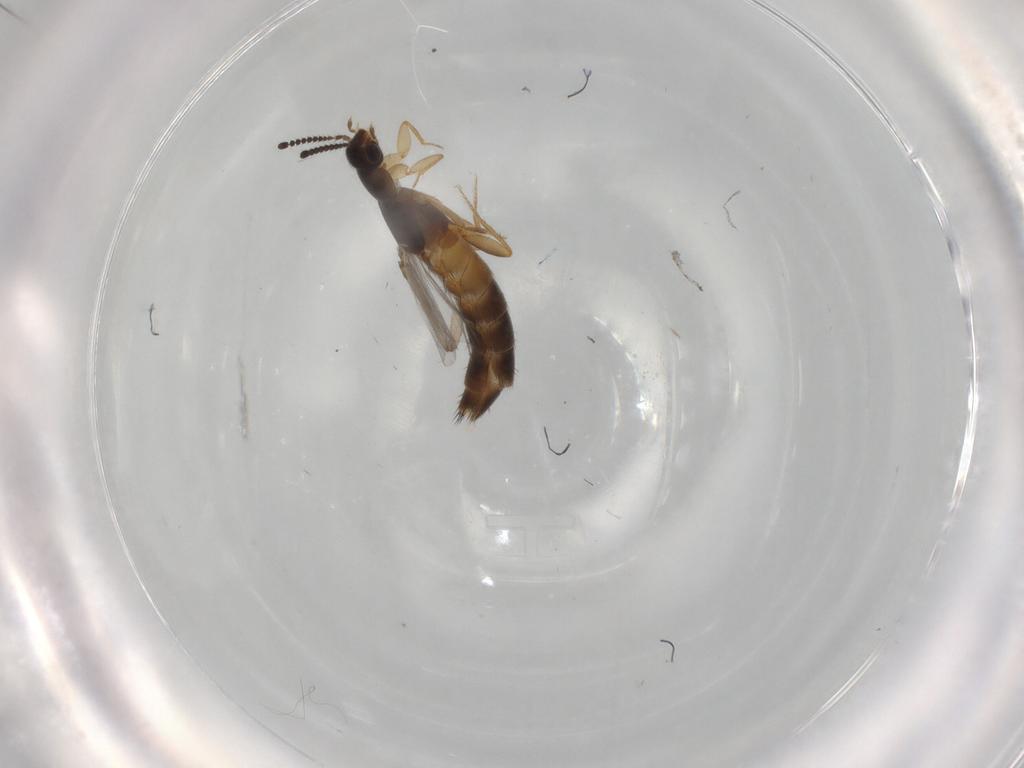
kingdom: Animalia
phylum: Arthropoda
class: Insecta
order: Coleoptera
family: Staphylinidae
